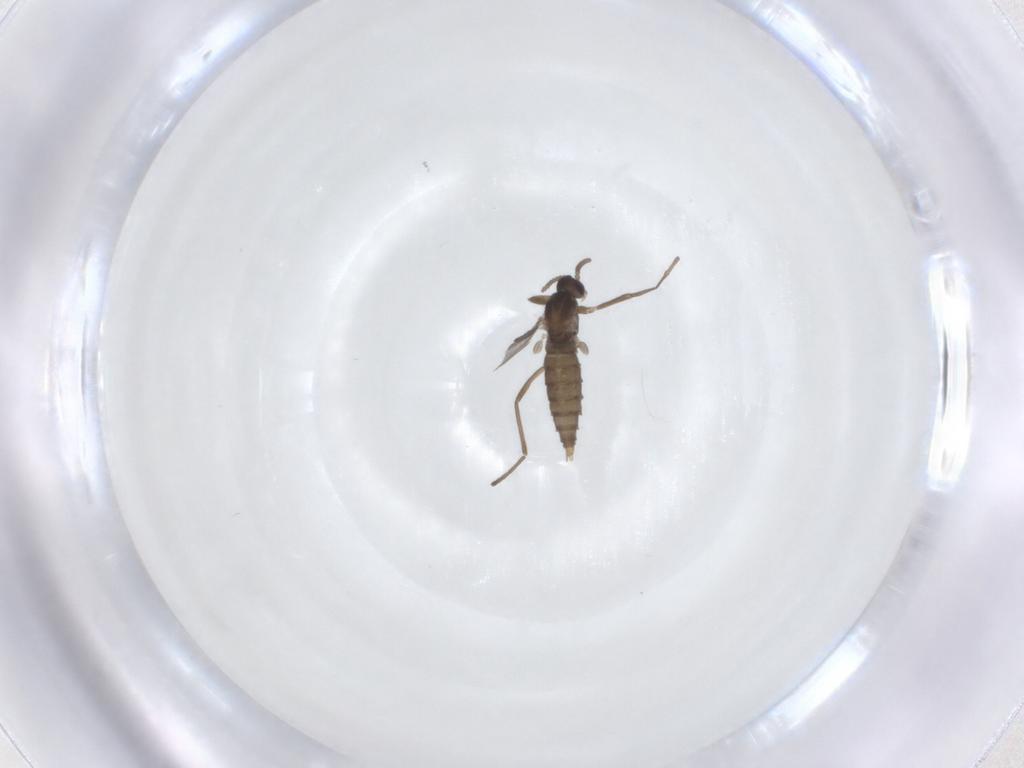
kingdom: Animalia
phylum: Arthropoda
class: Insecta
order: Diptera
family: Cecidomyiidae
